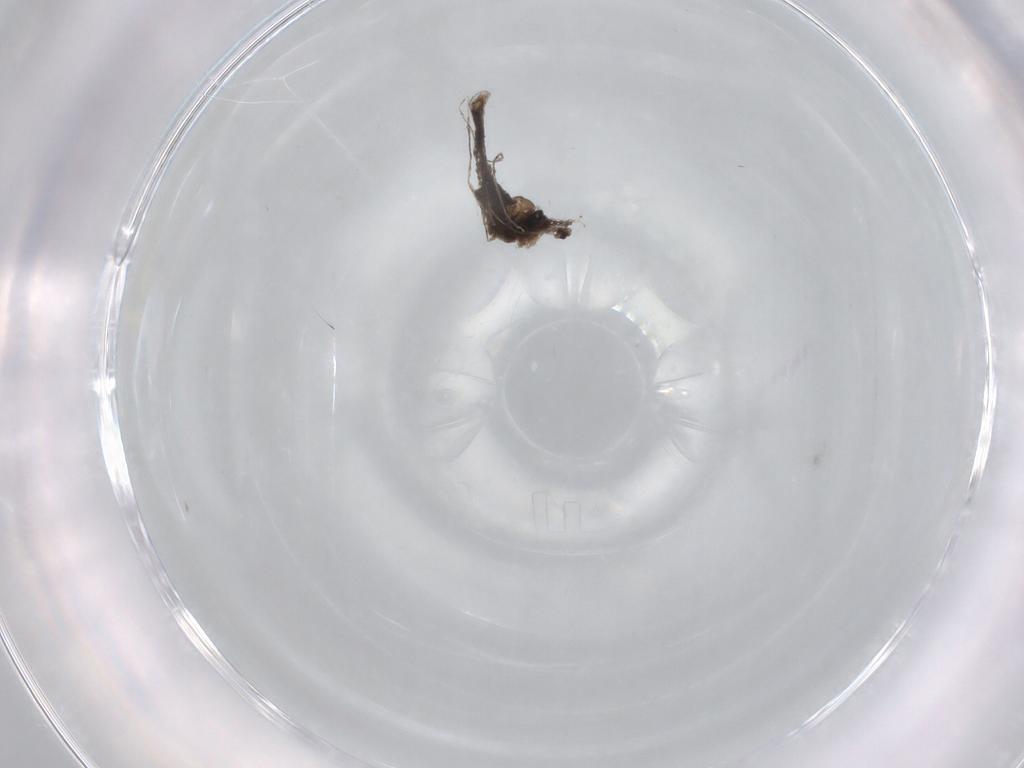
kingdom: Animalia
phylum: Arthropoda
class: Insecta
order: Diptera
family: Cecidomyiidae
